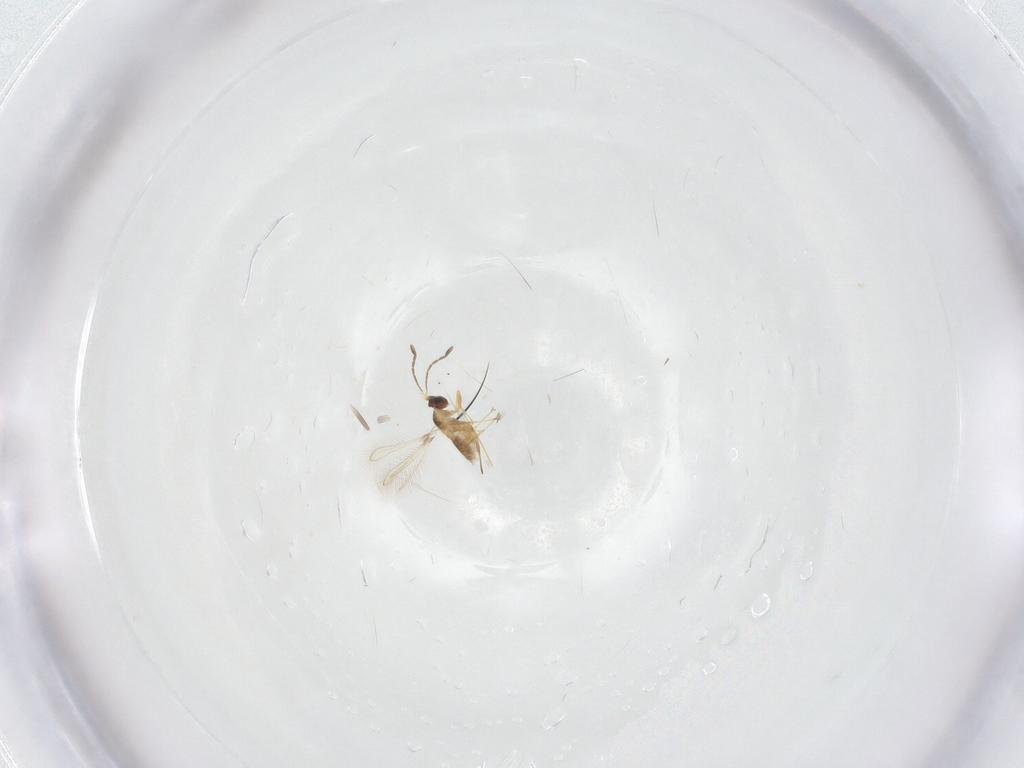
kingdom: Animalia
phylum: Arthropoda
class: Insecta
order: Hymenoptera
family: Mymaridae
